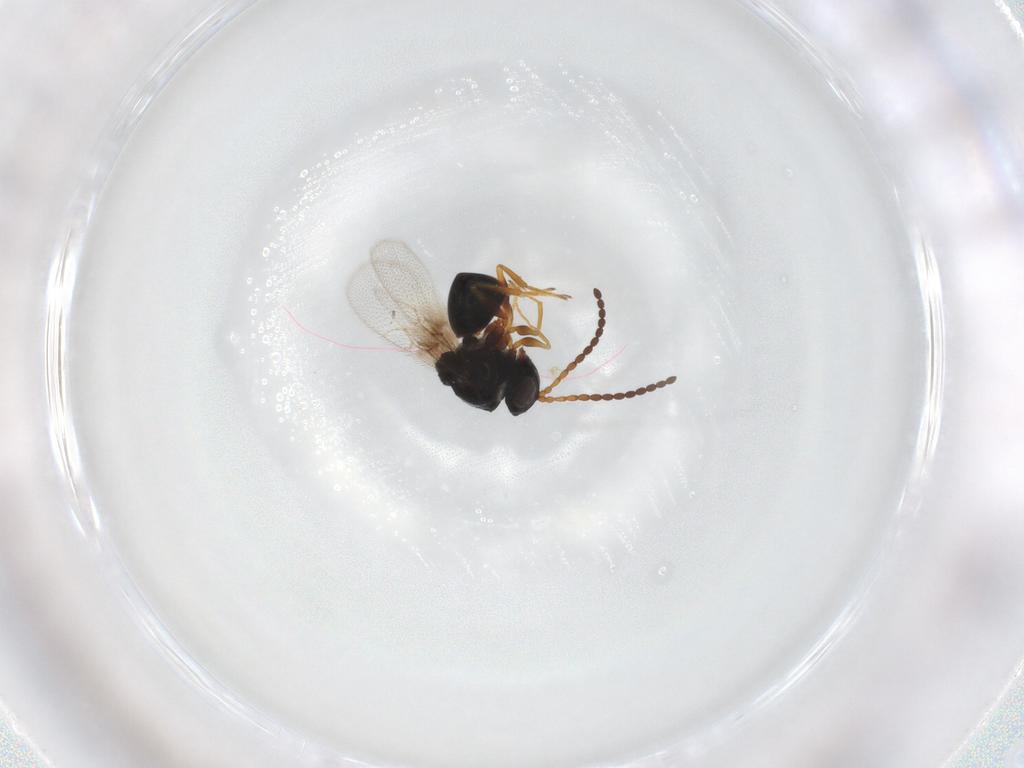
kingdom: Animalia
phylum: Arthropoda
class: Insecta
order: Hymenoptera
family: Figitidae
